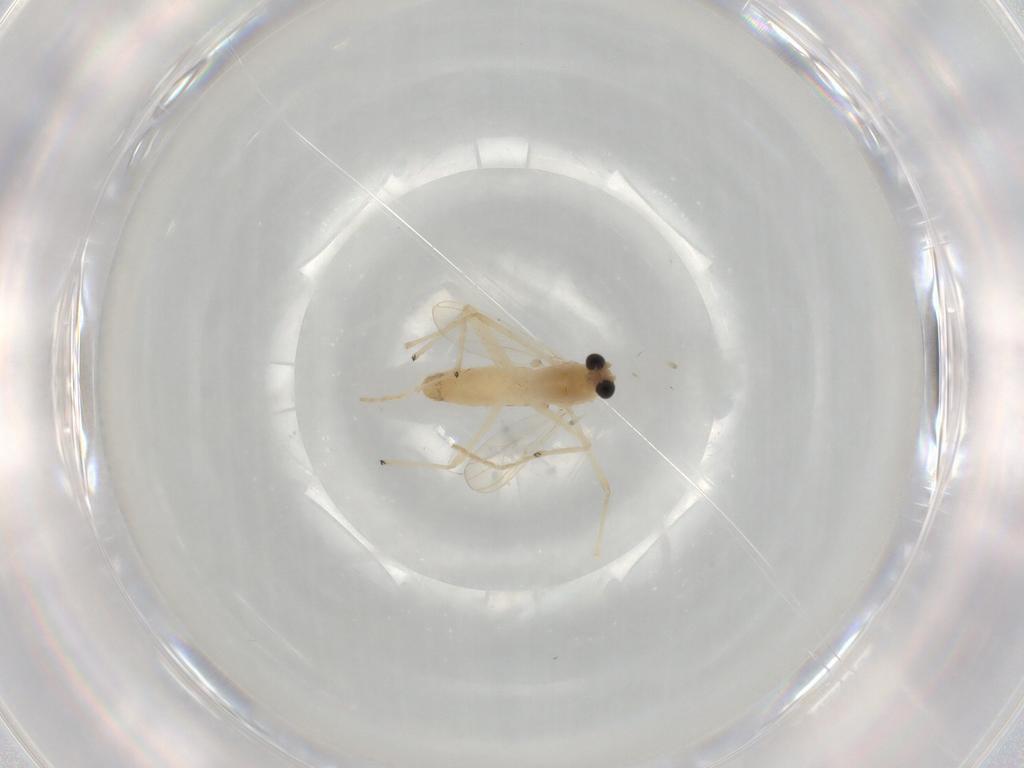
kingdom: Animalia
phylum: Arthropoda
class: Insecta
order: Diptera
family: Chironomidae
